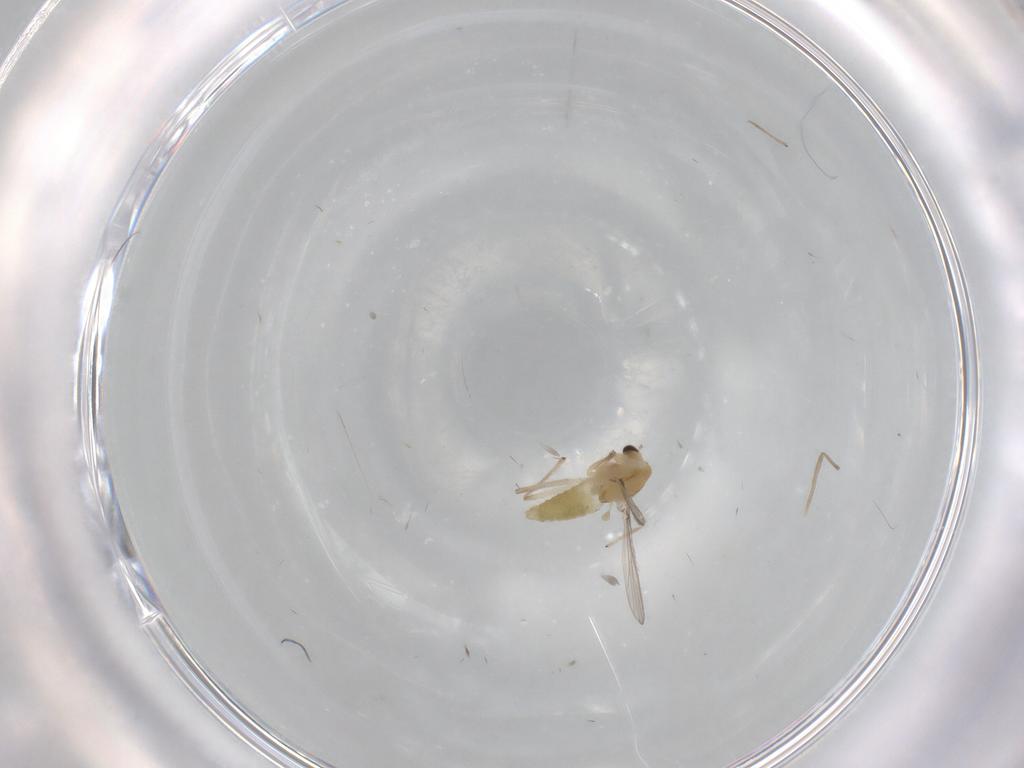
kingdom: Animalia
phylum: Arthropoda
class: Insecta
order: Diptera
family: Chironomidae
